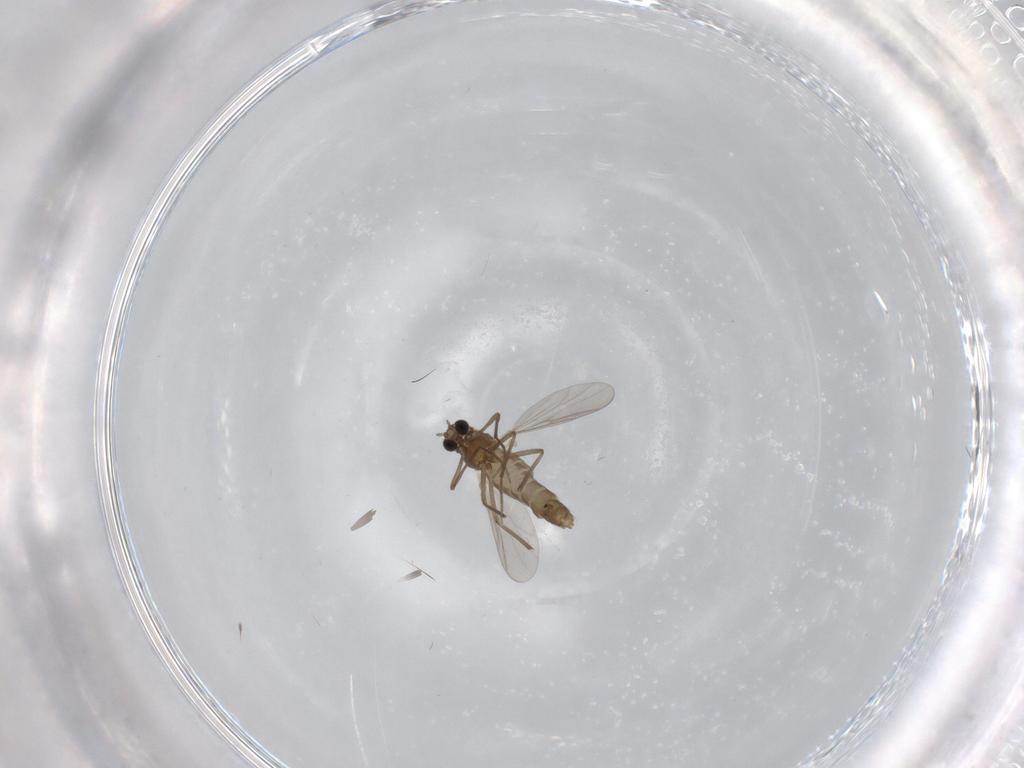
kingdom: Animalia
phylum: Arthropoda
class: Insecta
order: Diptera
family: Chironomidae
